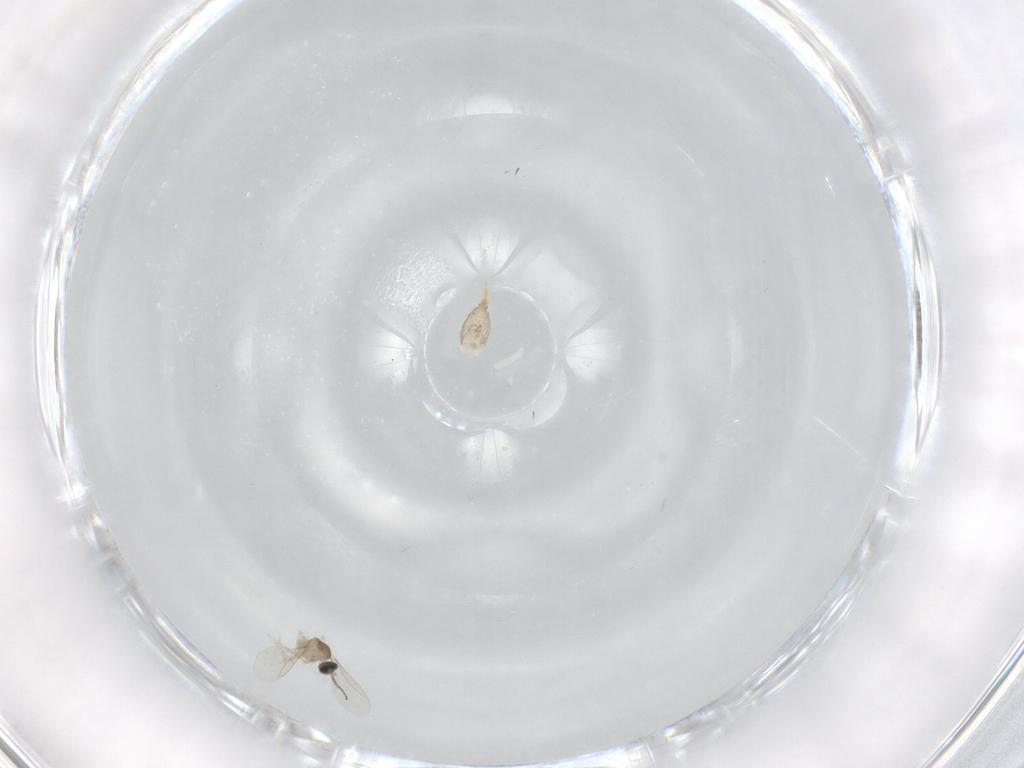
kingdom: Animalia
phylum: Arthropoda
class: Insecta
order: Diptera
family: Cecidomyiidae
